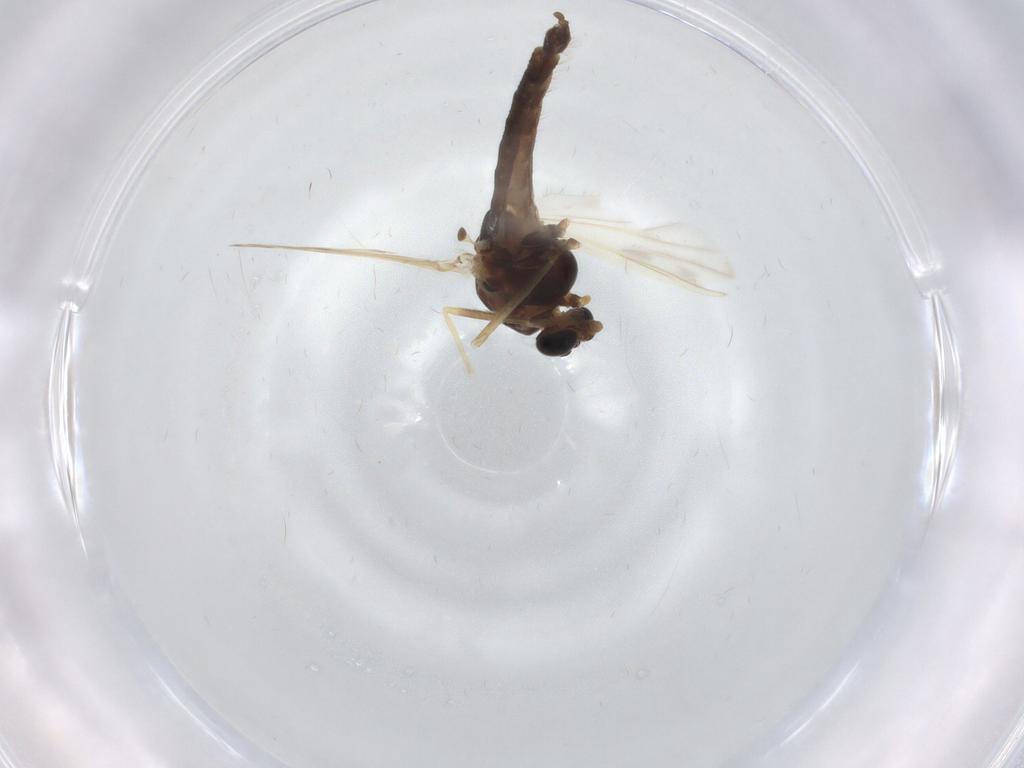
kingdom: Animalia
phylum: Arthropoda
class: Insecta
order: Diptera
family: Chironomidae
